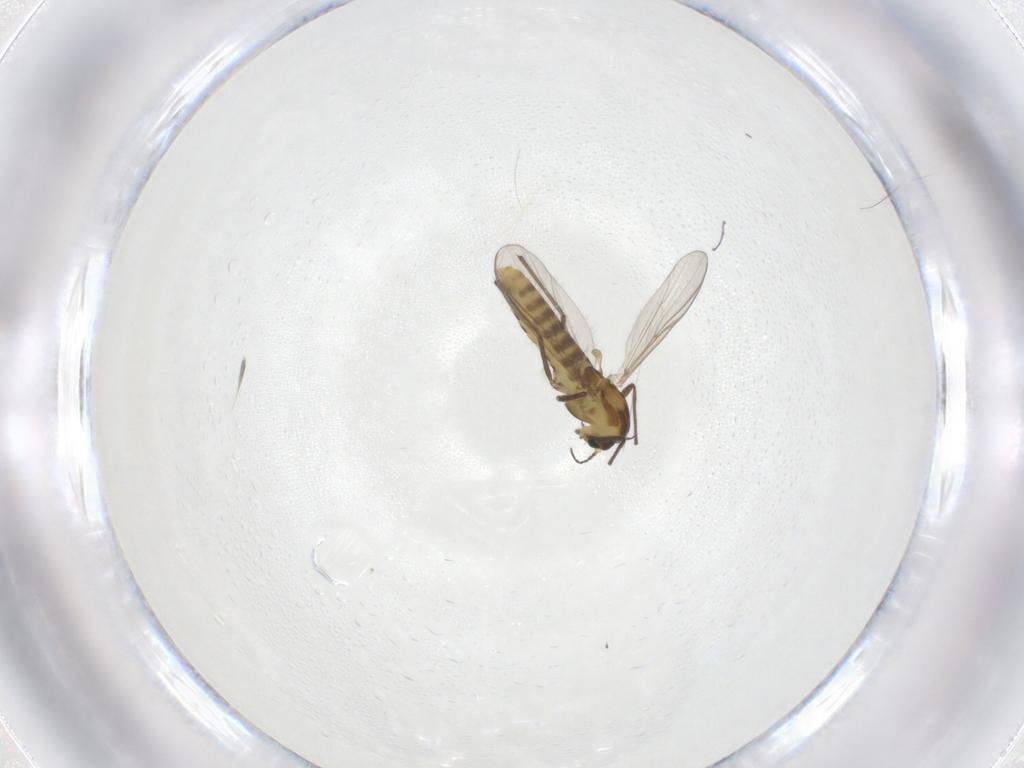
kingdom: Animalia
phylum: Arthropoda
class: Insecta
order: Diptera
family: Chironomidae
